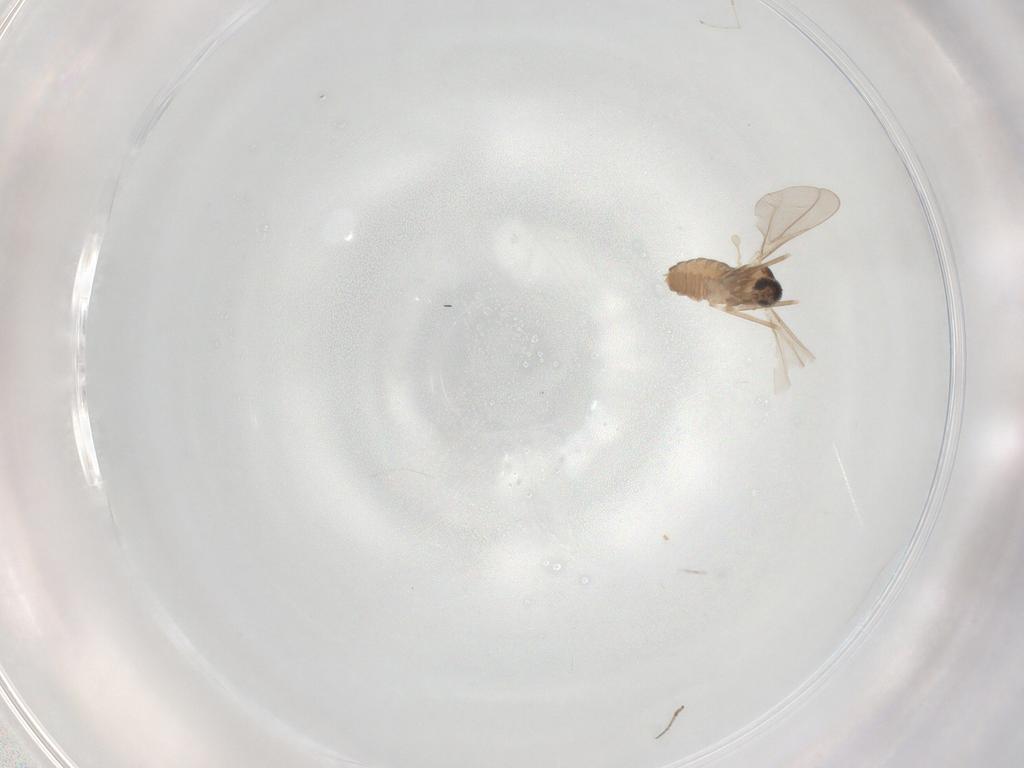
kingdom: Animalia
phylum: Arthropoda
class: Insecta
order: Diptera
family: Cecidomyiidae
